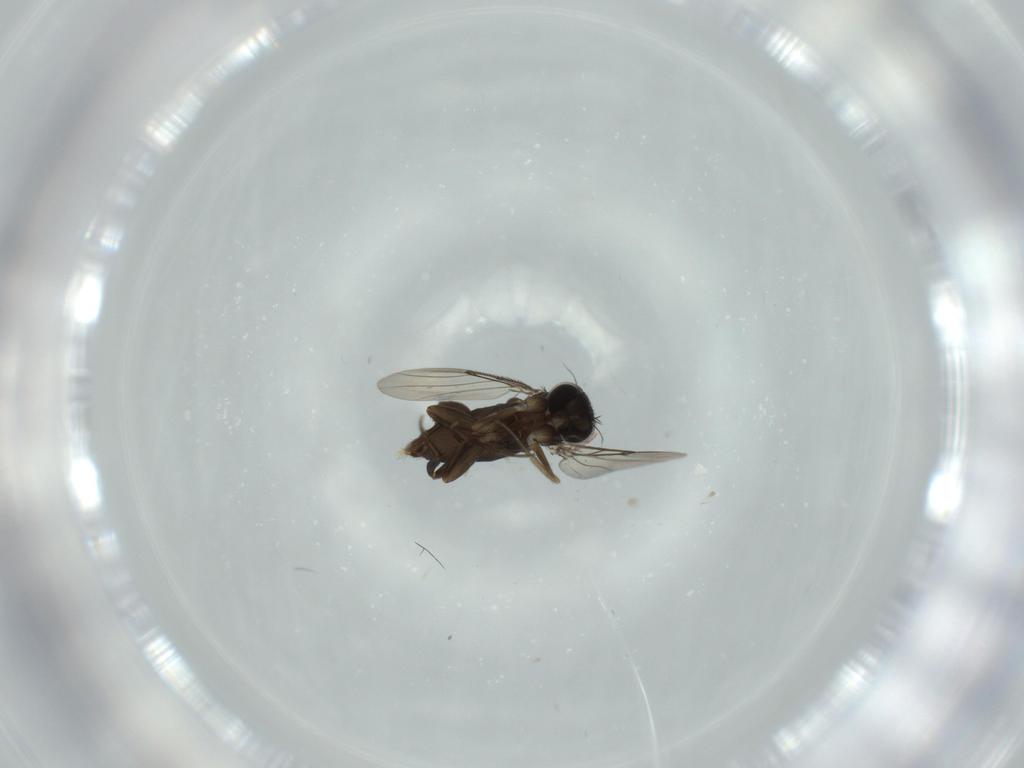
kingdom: Animalia
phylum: Arthropoda
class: Insecta
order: Diptera
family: Phoridae
